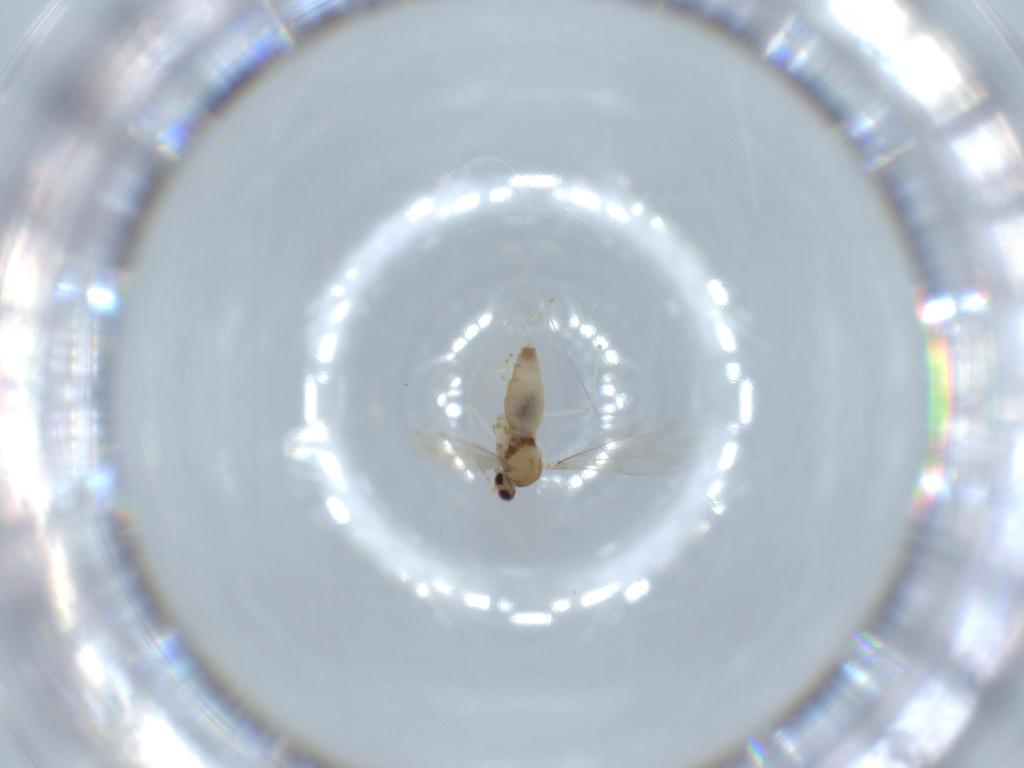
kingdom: Animalia
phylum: Arthropoda
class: Insecta
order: Diptera
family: Cecidomyiidae
